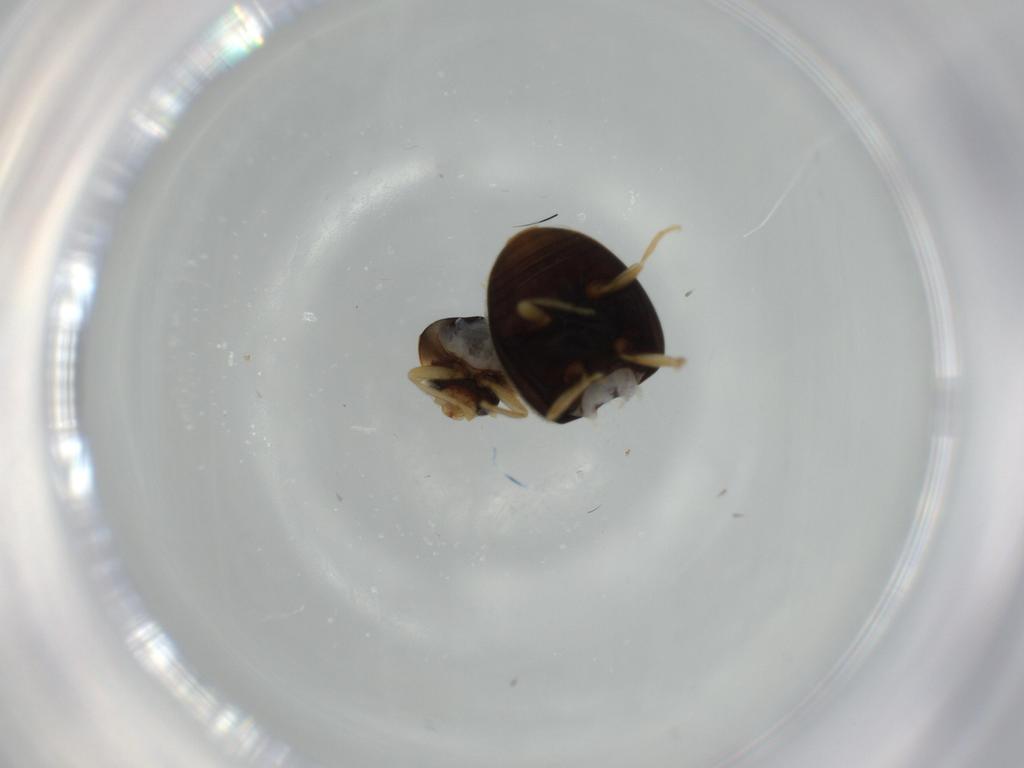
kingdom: Animalia
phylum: Arthropoda
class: Insecta
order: Coleoptera
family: Coccinellidae
